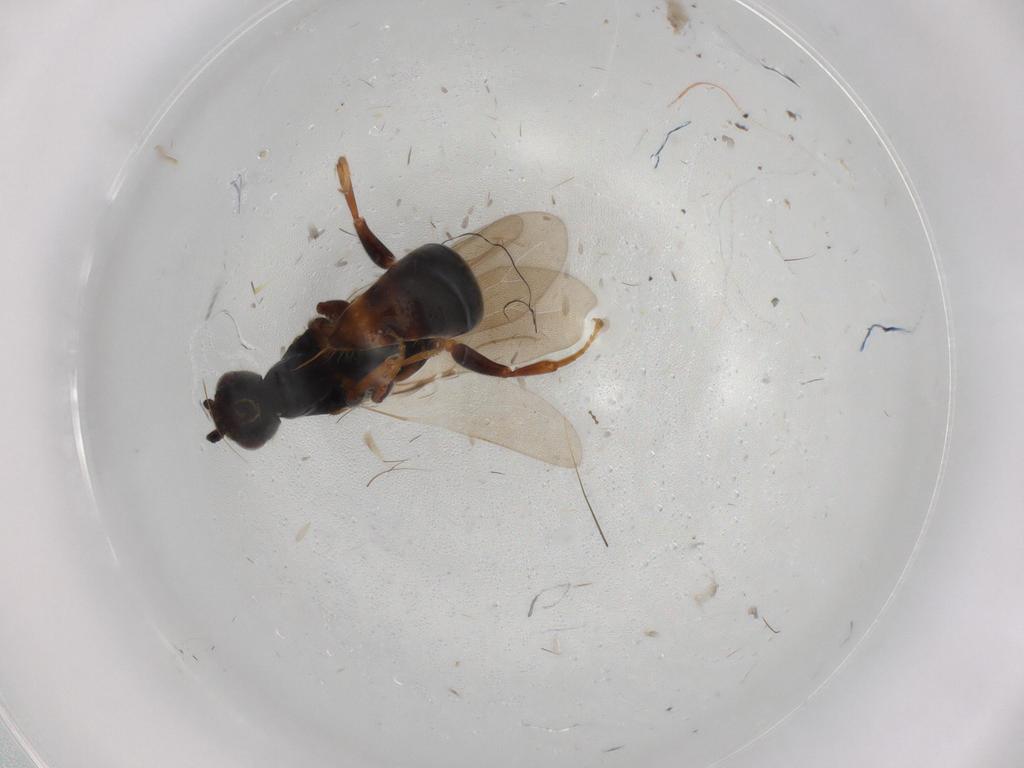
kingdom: Animalia
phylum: Arthropoda
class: Insecta
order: Hymenoptera
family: Bethylidae
